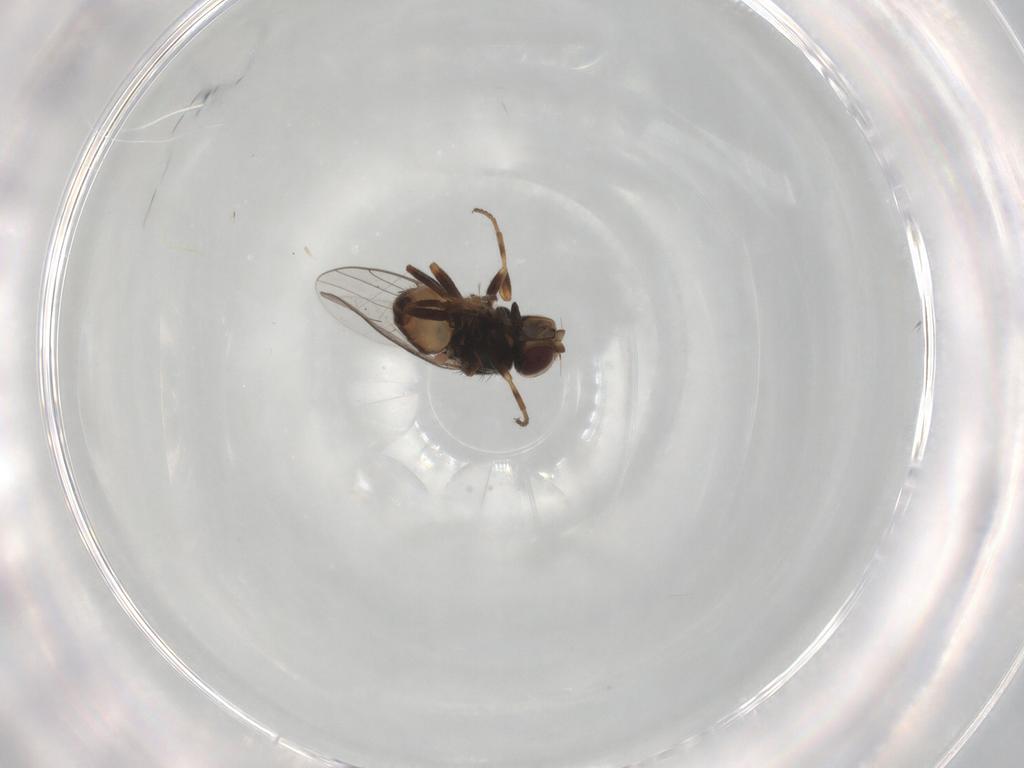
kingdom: Animalia
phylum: Arthropoda
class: Insecta
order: Diptera
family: Chloropidae
